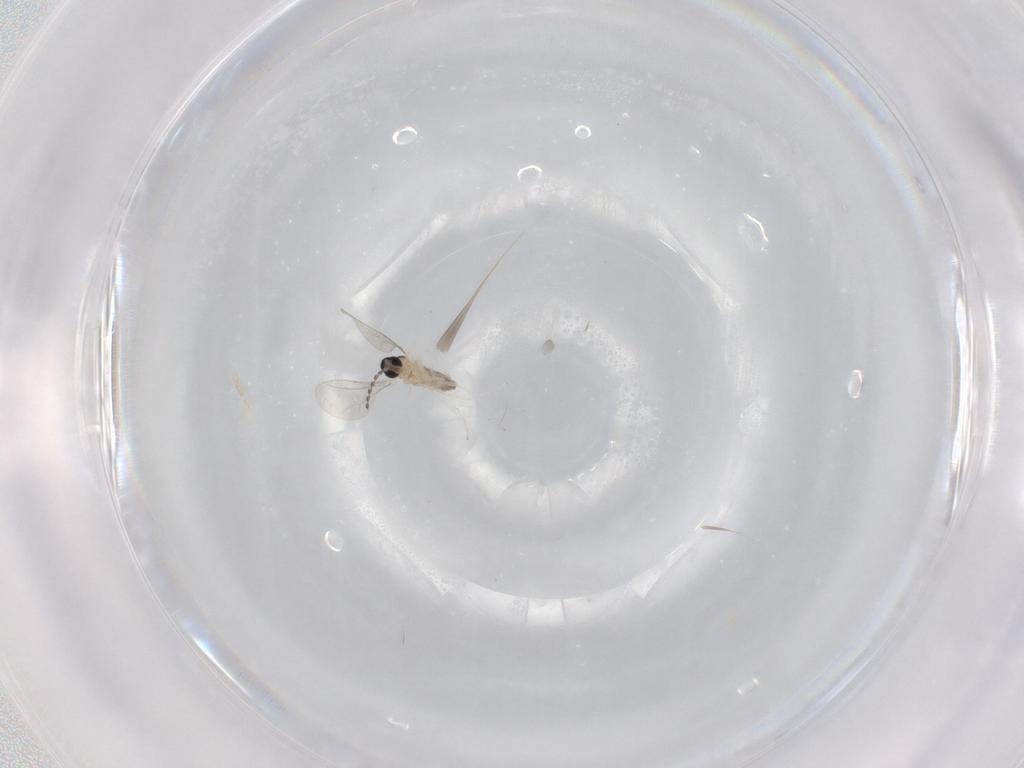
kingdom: Animalia
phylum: Arthropoda
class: Insecta
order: Diptera
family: Cecidomyiidae
